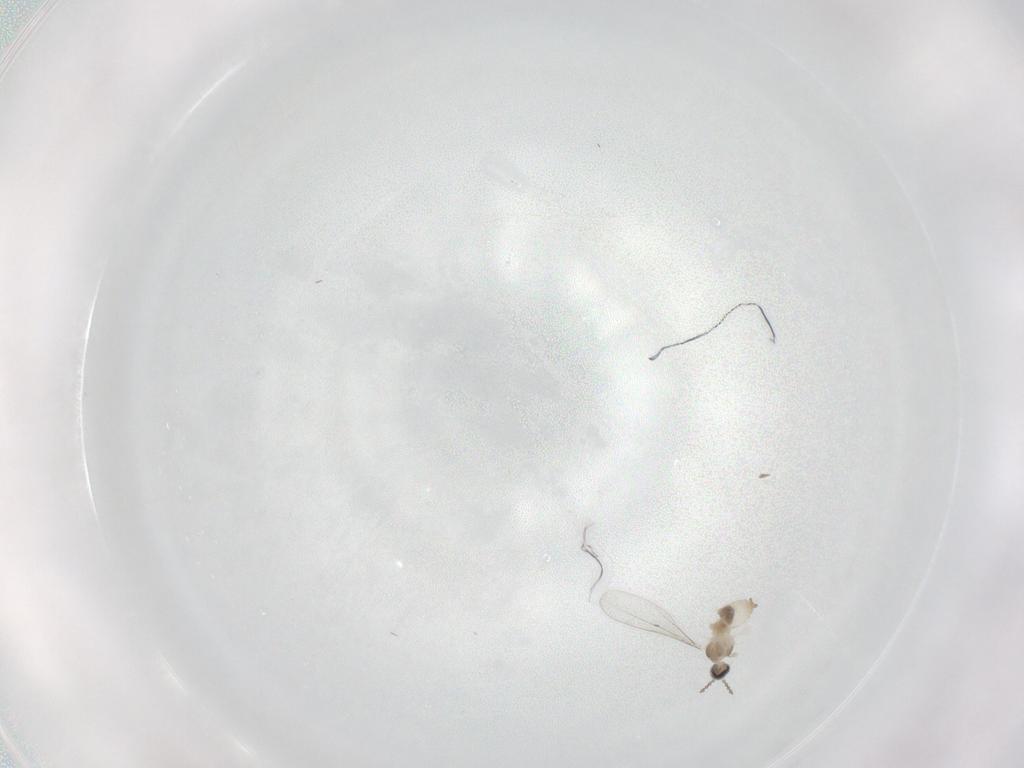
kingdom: Animalia
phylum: Arthropoda
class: Insecta
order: Diptera
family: Cecidomyiidae
